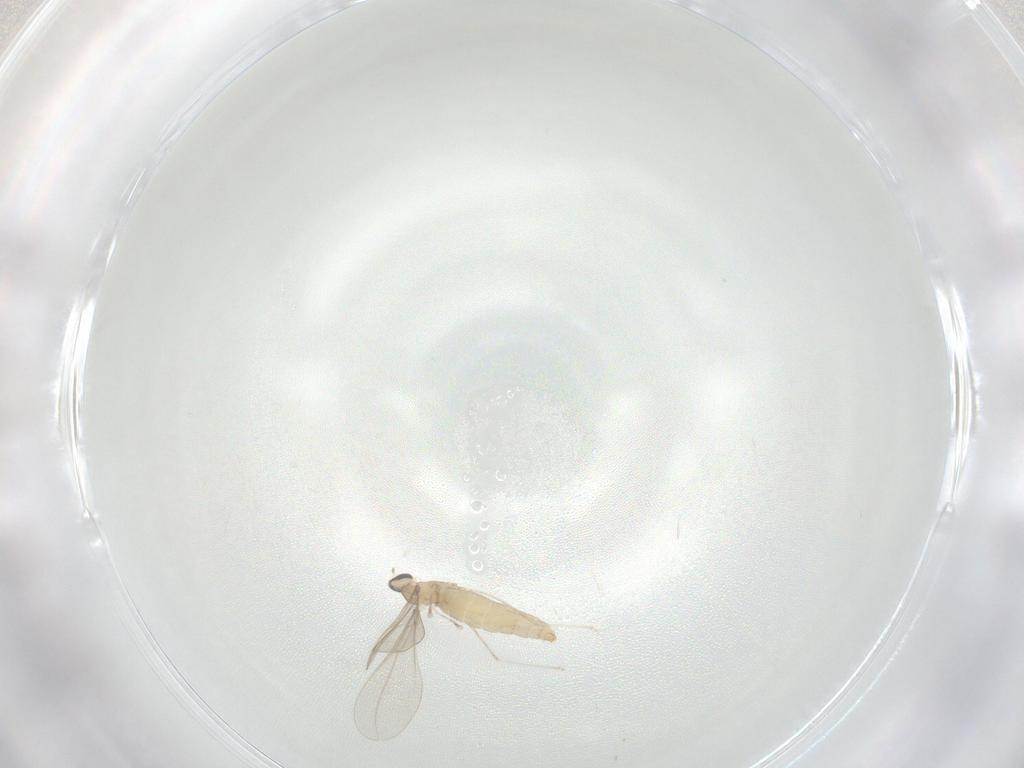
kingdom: Animalia
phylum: Arthropoda
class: Insecta
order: Diptera
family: Cecidomyiidae
